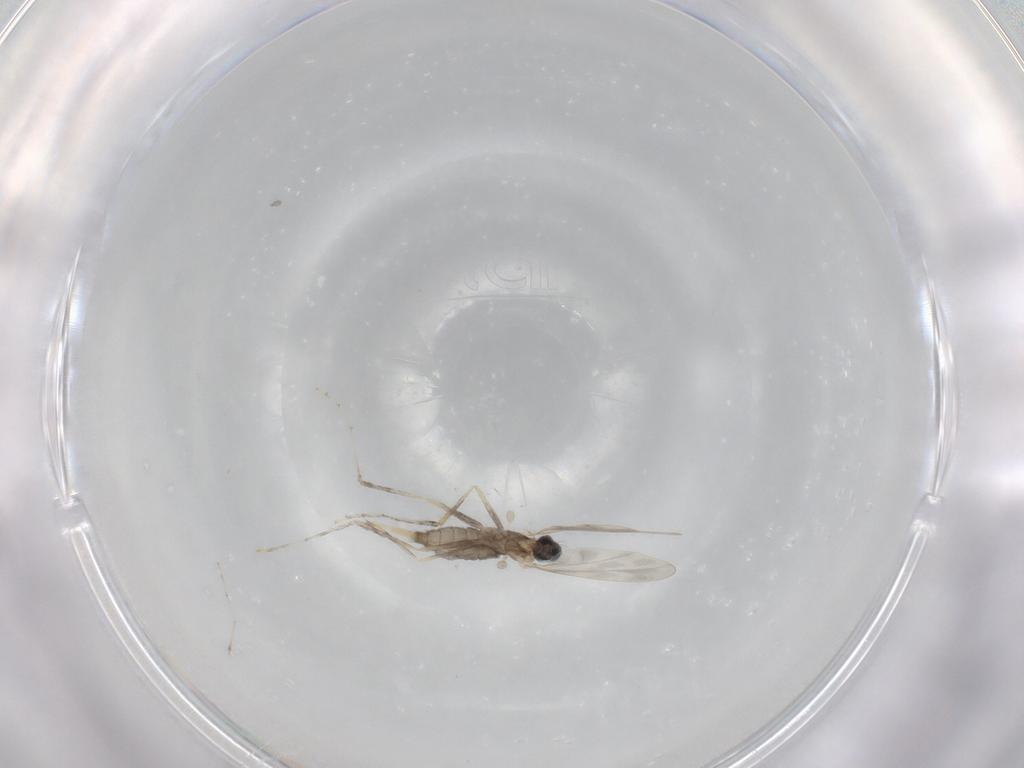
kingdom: Animalia
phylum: Arthropoda
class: Insecta
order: Diptera
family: Cecidomyiidae
